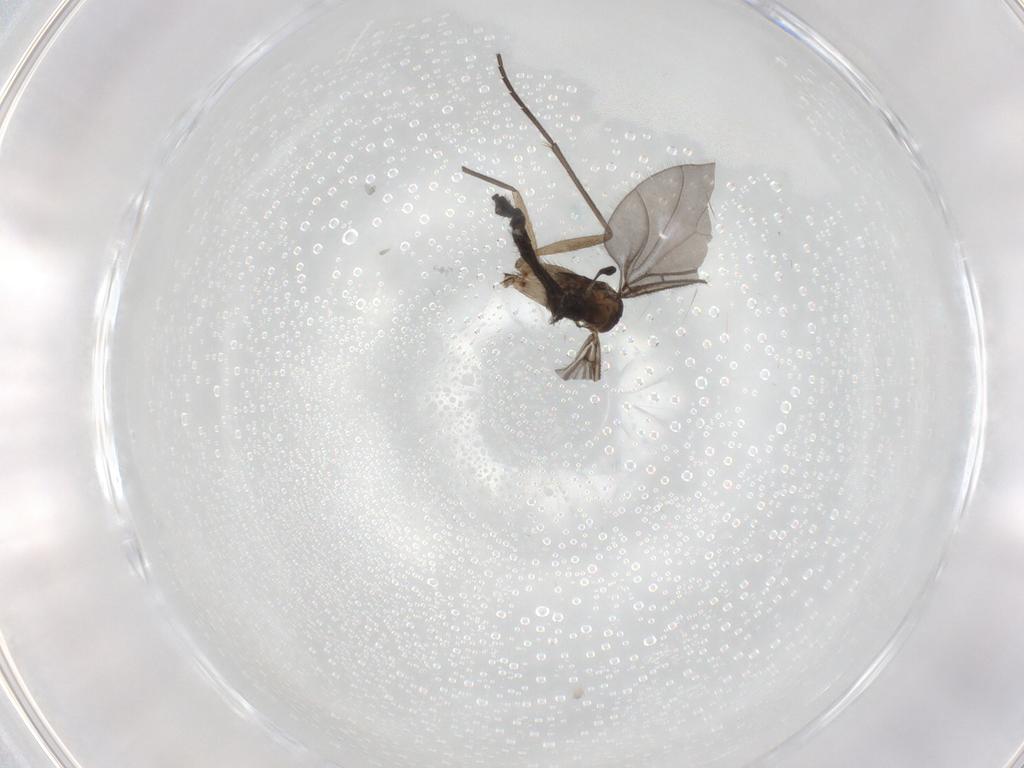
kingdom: Animalia
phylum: Arthropoda
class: Insecta
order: Diptera
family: Sciaridae
